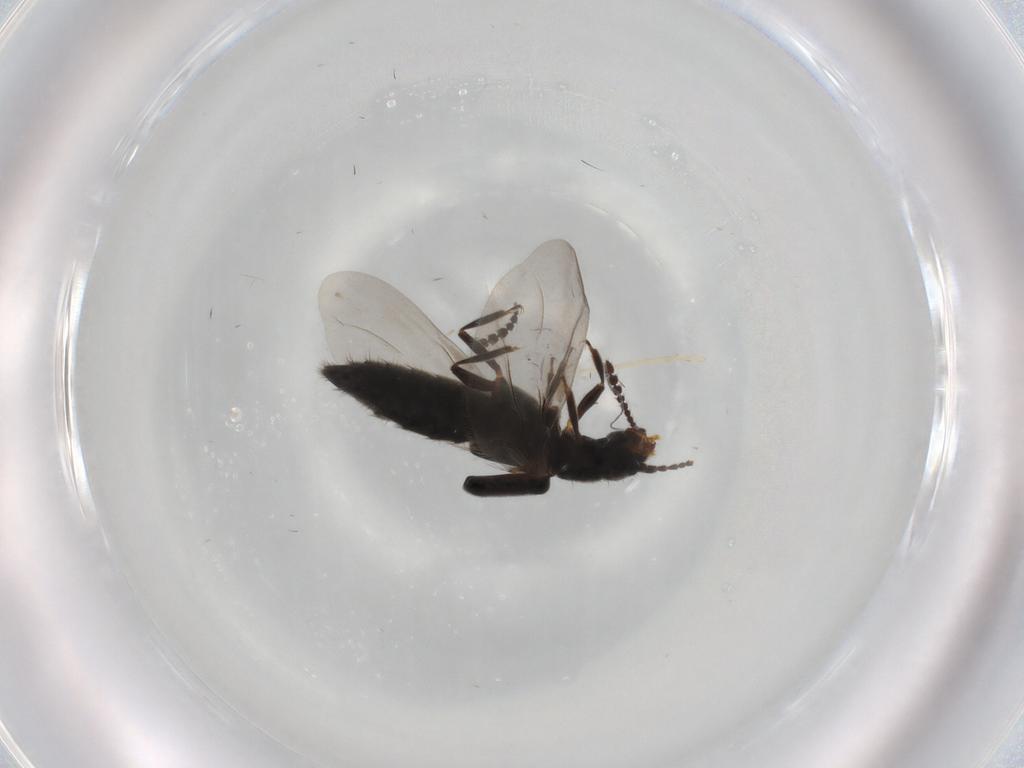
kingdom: Animalia
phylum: Arthropoda
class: Insecta
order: Coleoptera
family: Staphylinidae
